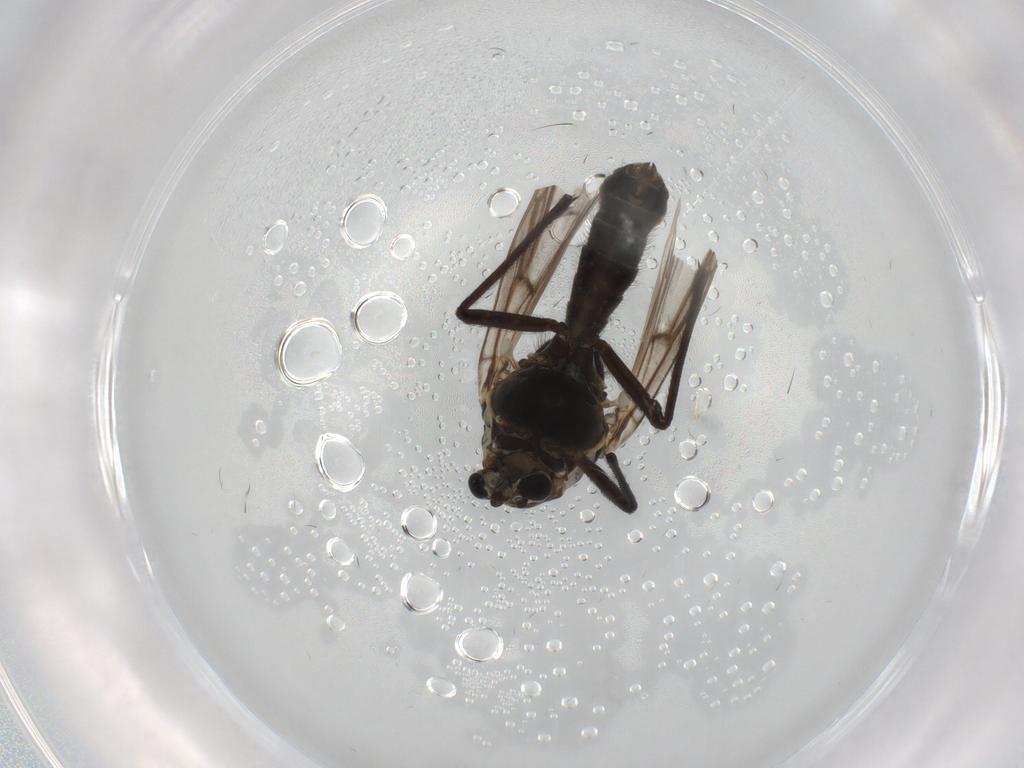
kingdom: Animalia
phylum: Arthropoda
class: Insecta
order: Diptera
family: Chironomidae
